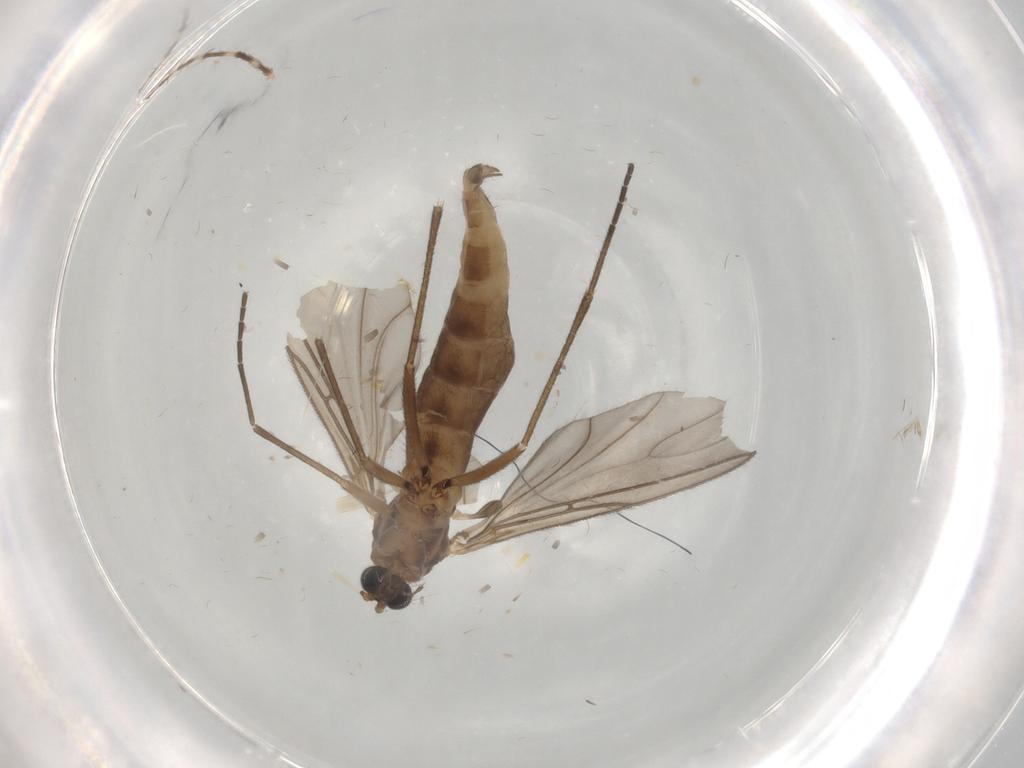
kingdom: Animalia
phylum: Arthropoda
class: Insecta
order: Diptera
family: Sciaridae
